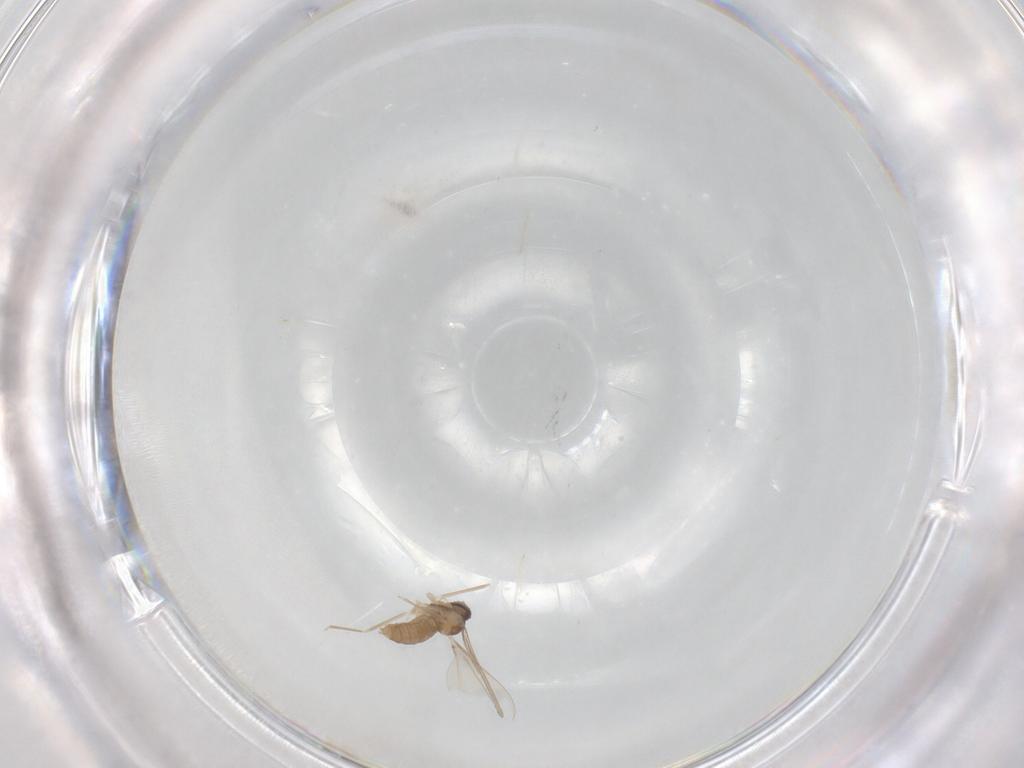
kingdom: Animalia
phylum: Arthropoda
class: Insecta
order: Diptera
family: Cecidomyiidae
